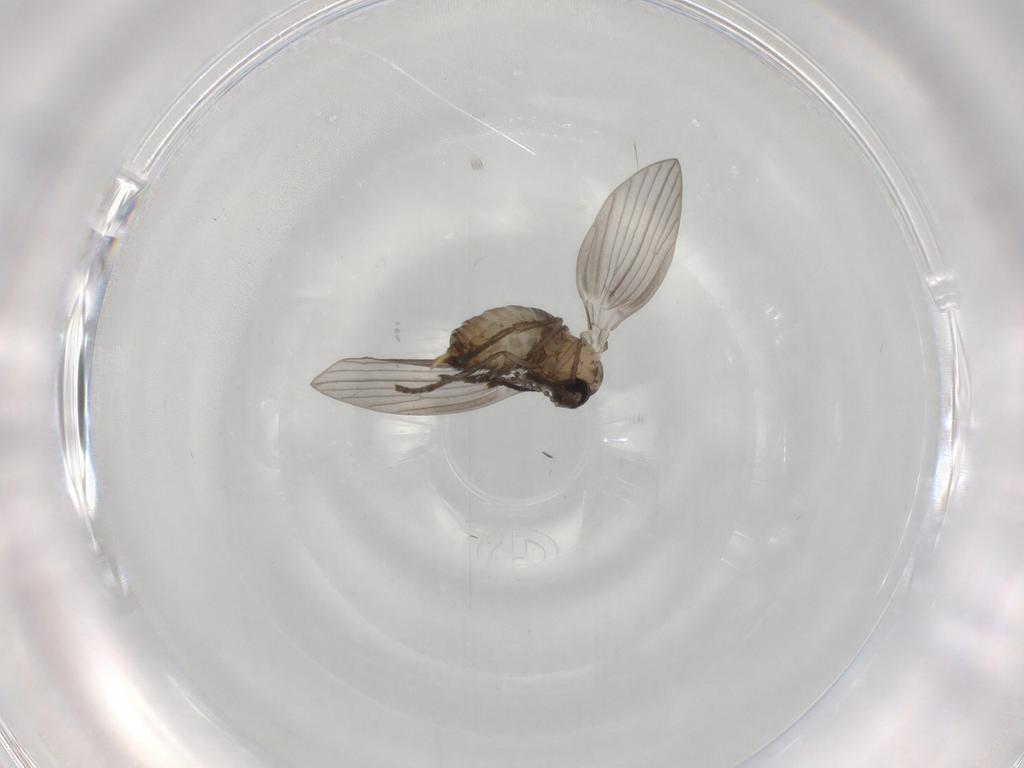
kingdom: Animalia
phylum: Arthropoda
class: Insecta
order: Diptera
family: Psychodidae
